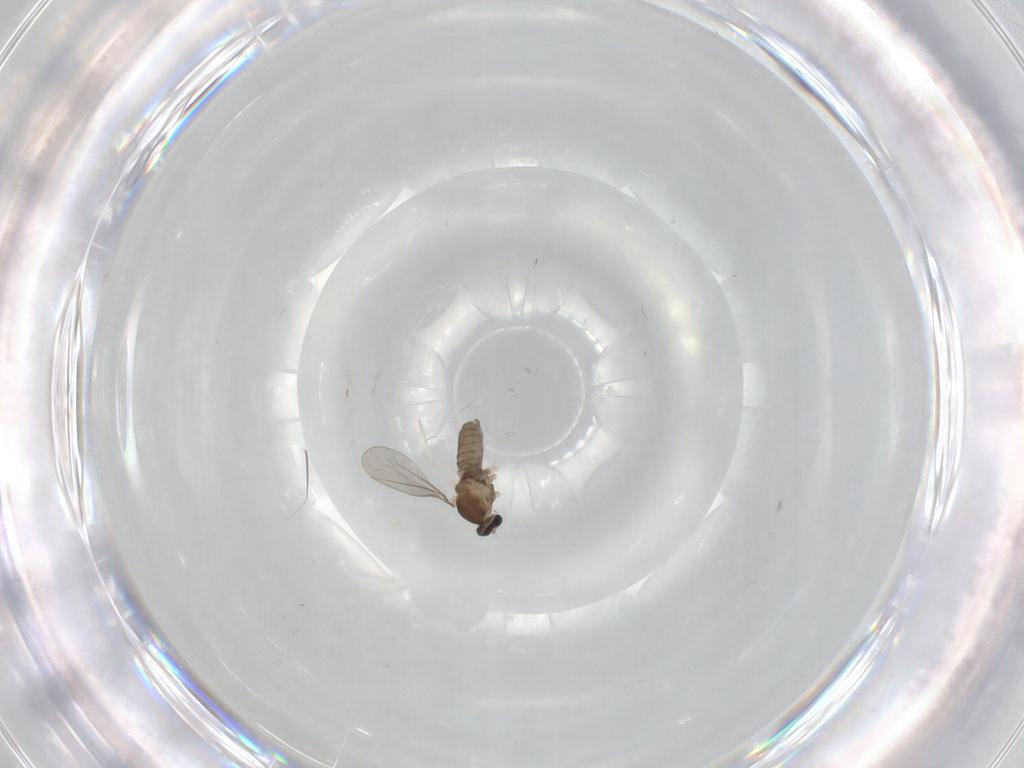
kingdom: Animalia
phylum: Arthropoda
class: Insecta
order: Diptera
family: Cecidomyiidae
